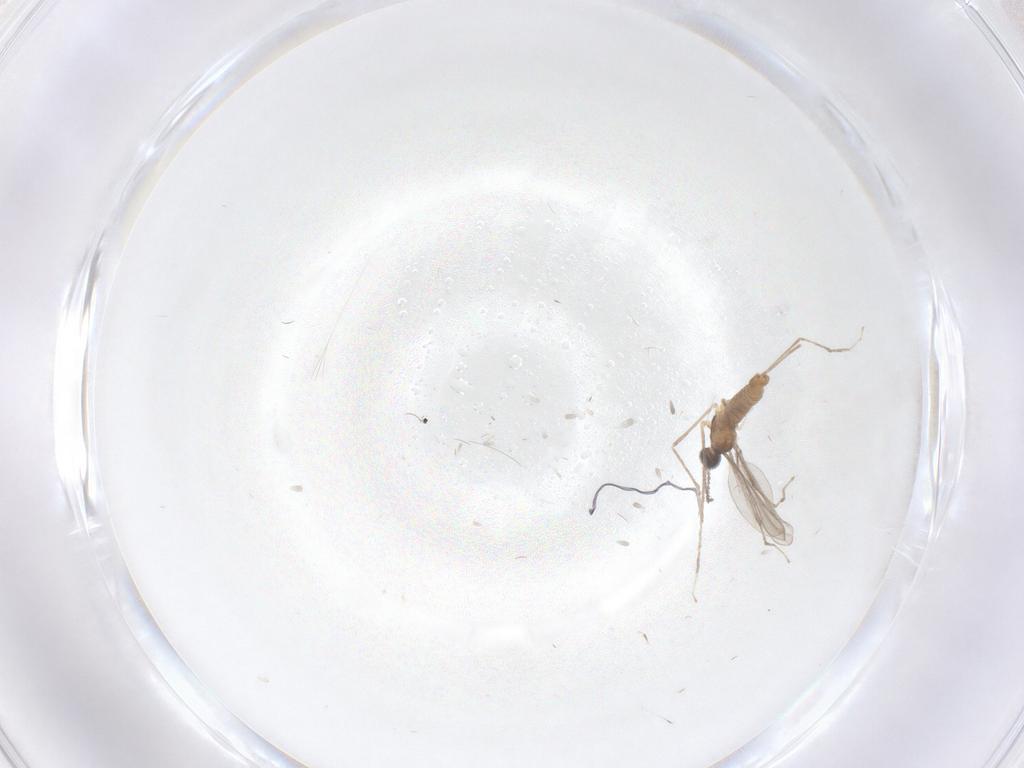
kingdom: Animalia
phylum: Arthropoda
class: Insecta
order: Diptera
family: Cecidomyiidae
